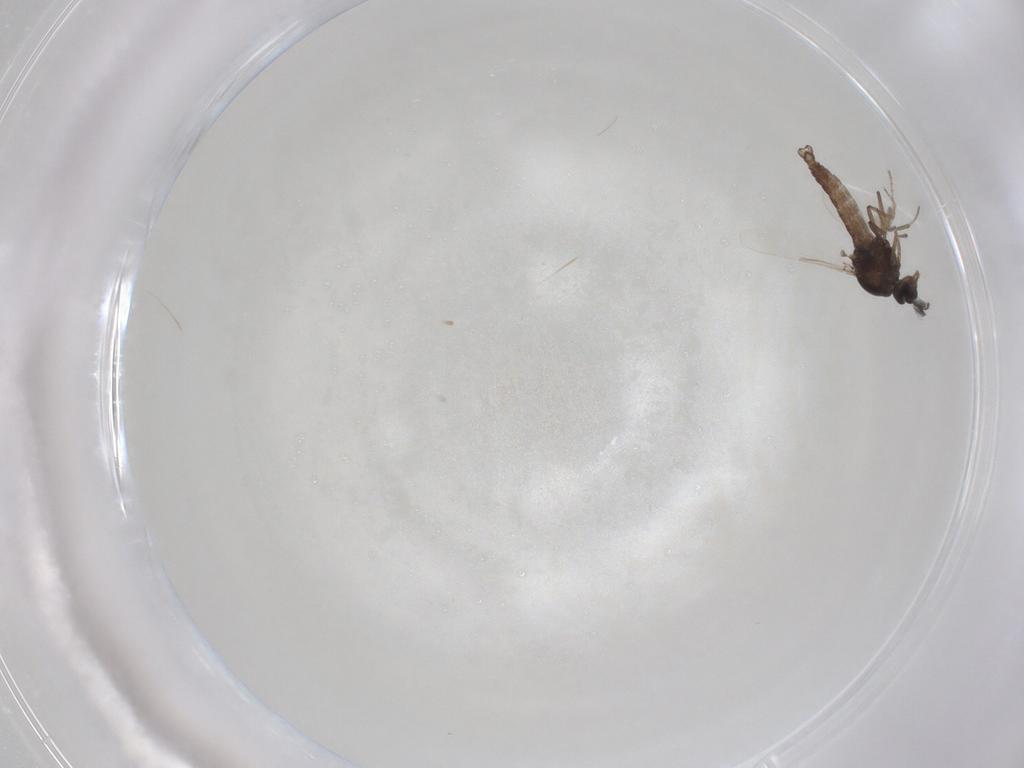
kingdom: Animalia
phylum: Arthropoda
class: Insecta
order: Diptera
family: Ceratopogonidae
